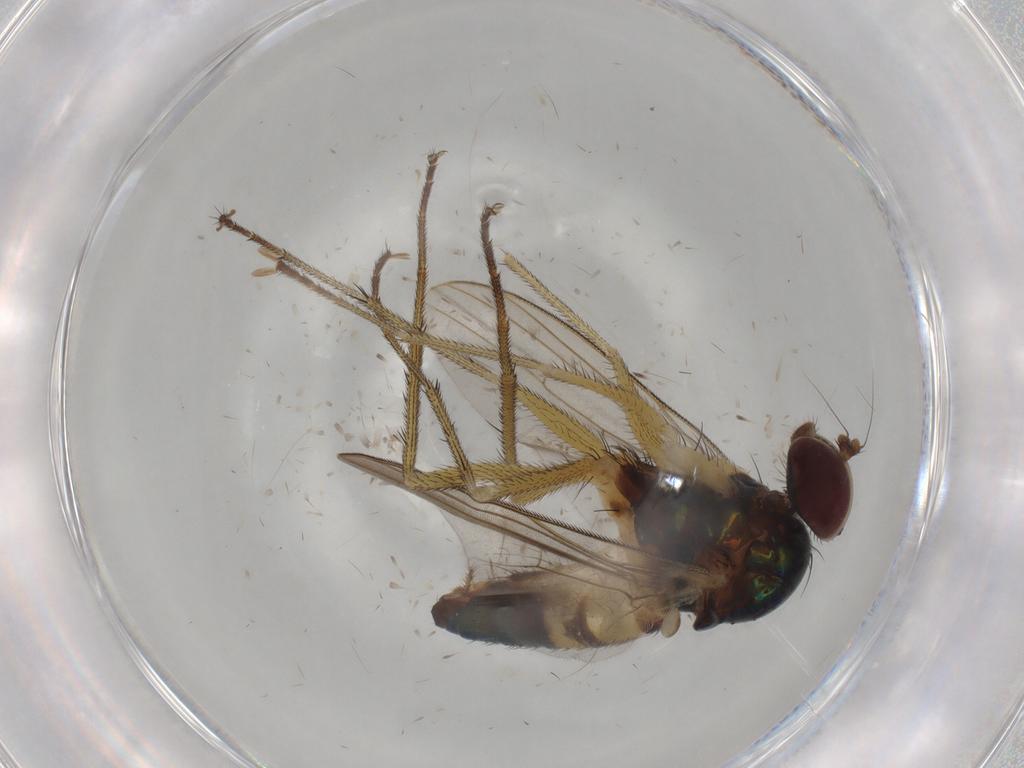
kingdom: Animalia
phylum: Arthropoda
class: Insecta
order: Diptera
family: Dolichopodidae
